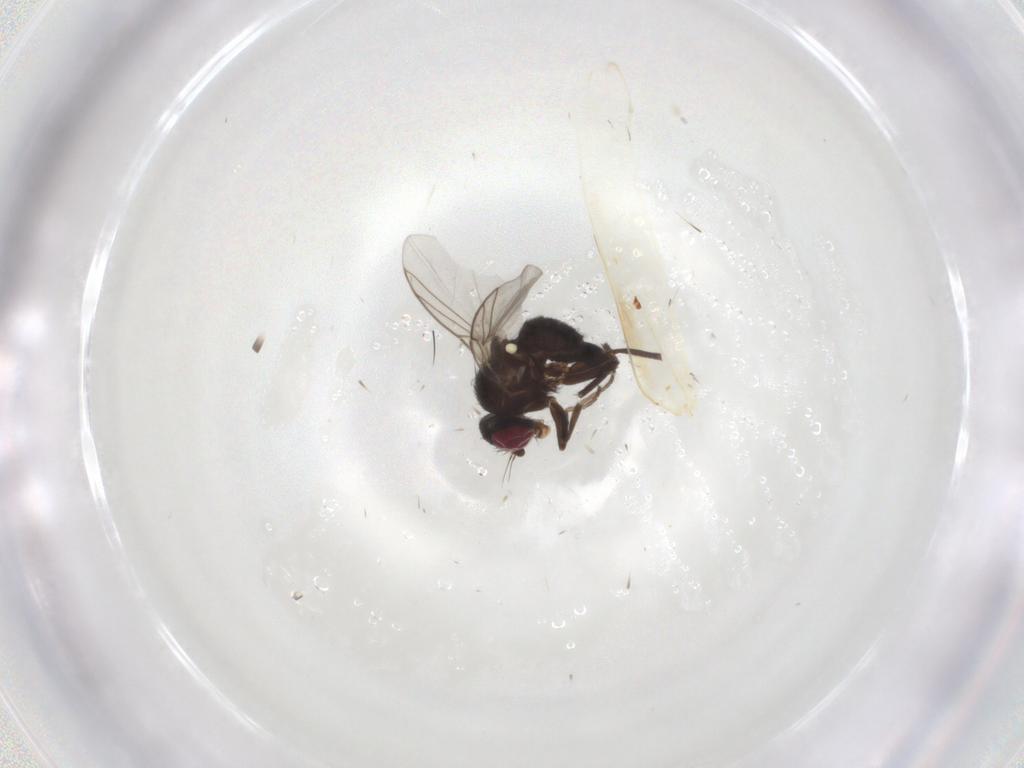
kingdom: Animalia
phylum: Arthropoda
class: Insecta
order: Diptera
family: Agromyzidae
